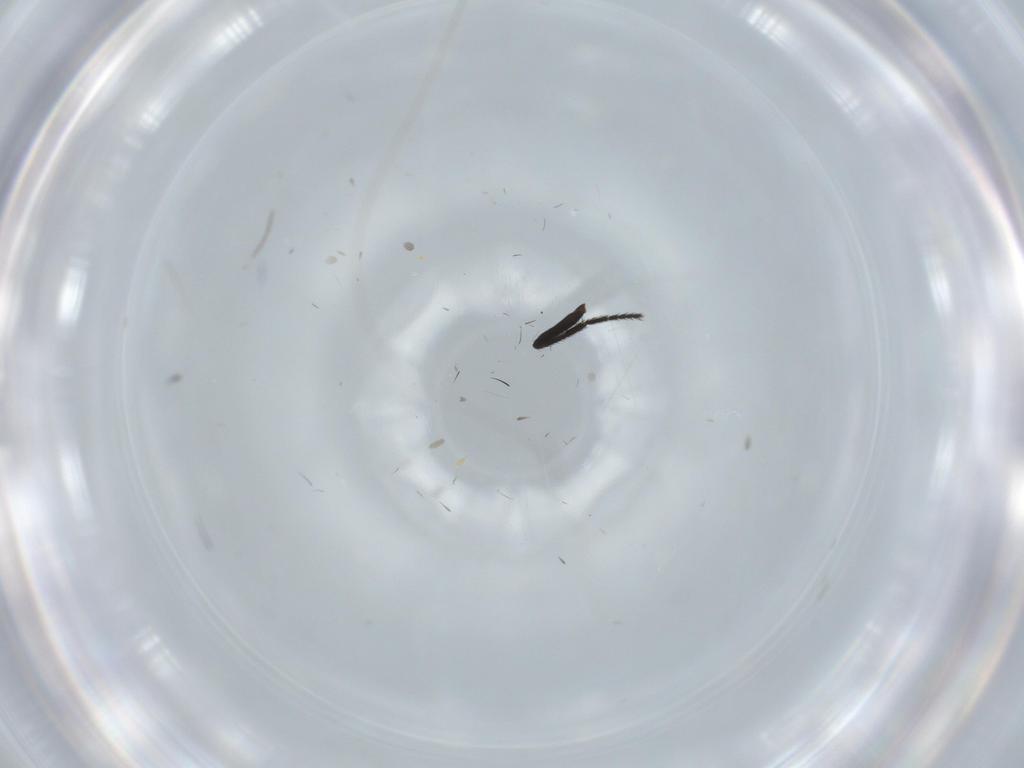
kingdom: Animalia
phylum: Arthropoda
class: Insecta
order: Diptera
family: Milichiidae
